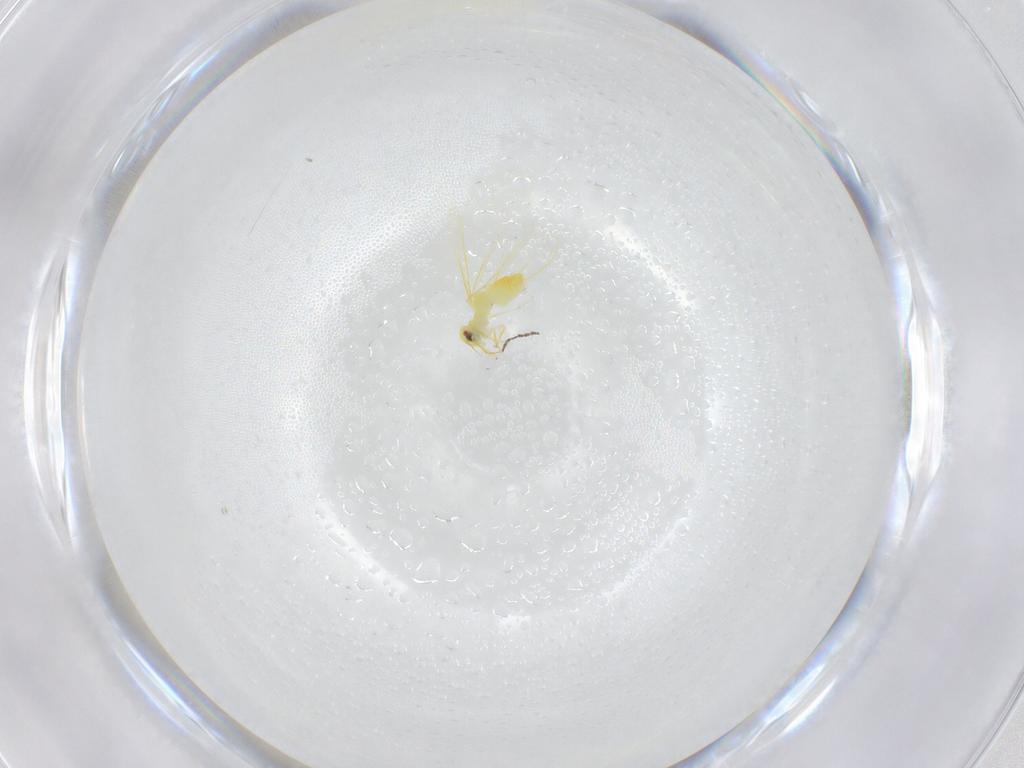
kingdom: Animalia
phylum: Arthropoda
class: Insecta
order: Hemiptera
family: Aleyrodidae
